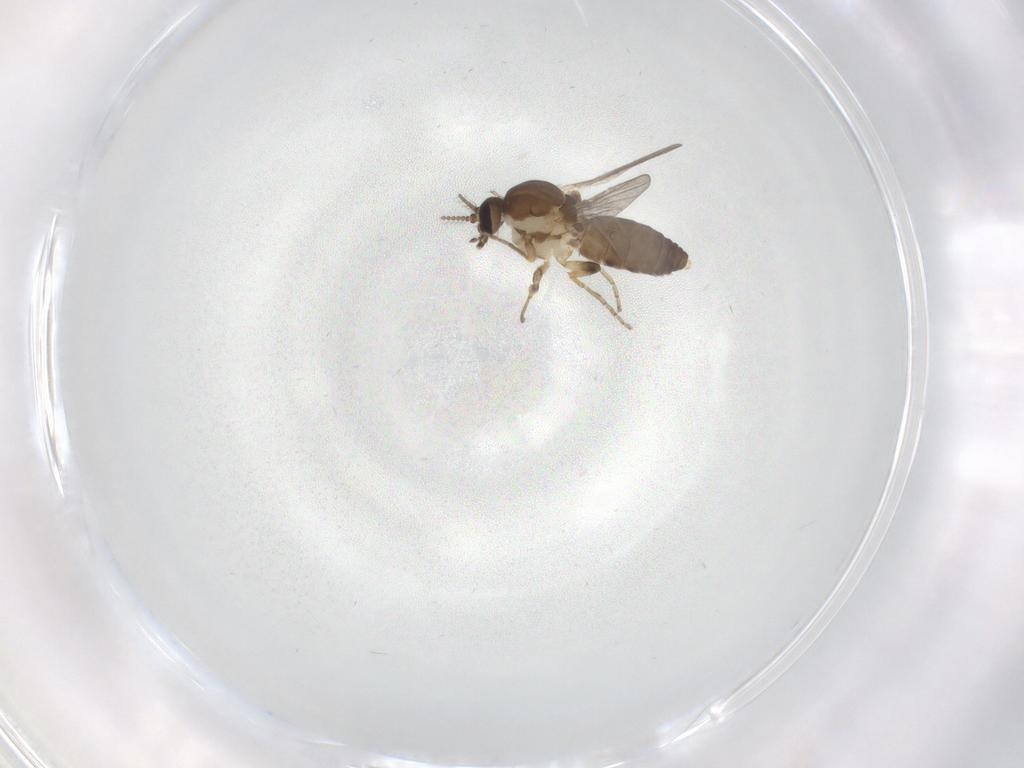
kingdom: Animalia
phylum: Arthropoda
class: Insecta
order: Diptera
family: Ceratopogonidae
